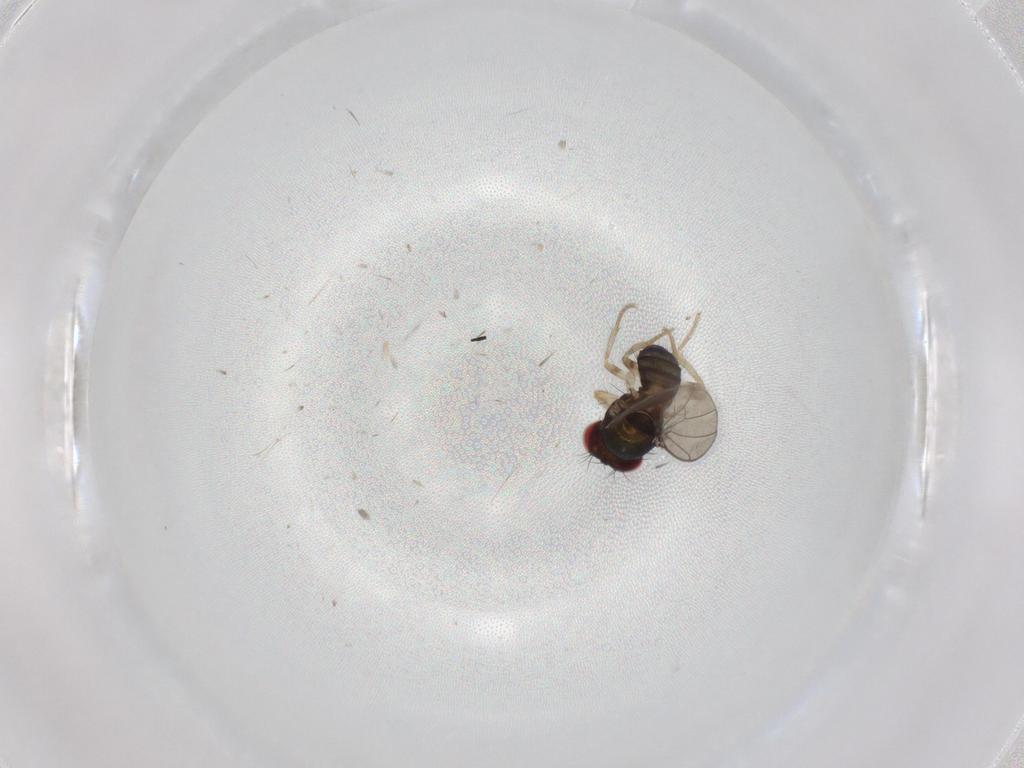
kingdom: Animalia
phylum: Arthropoda
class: Insecta
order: Diptera
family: Drosophilidae
